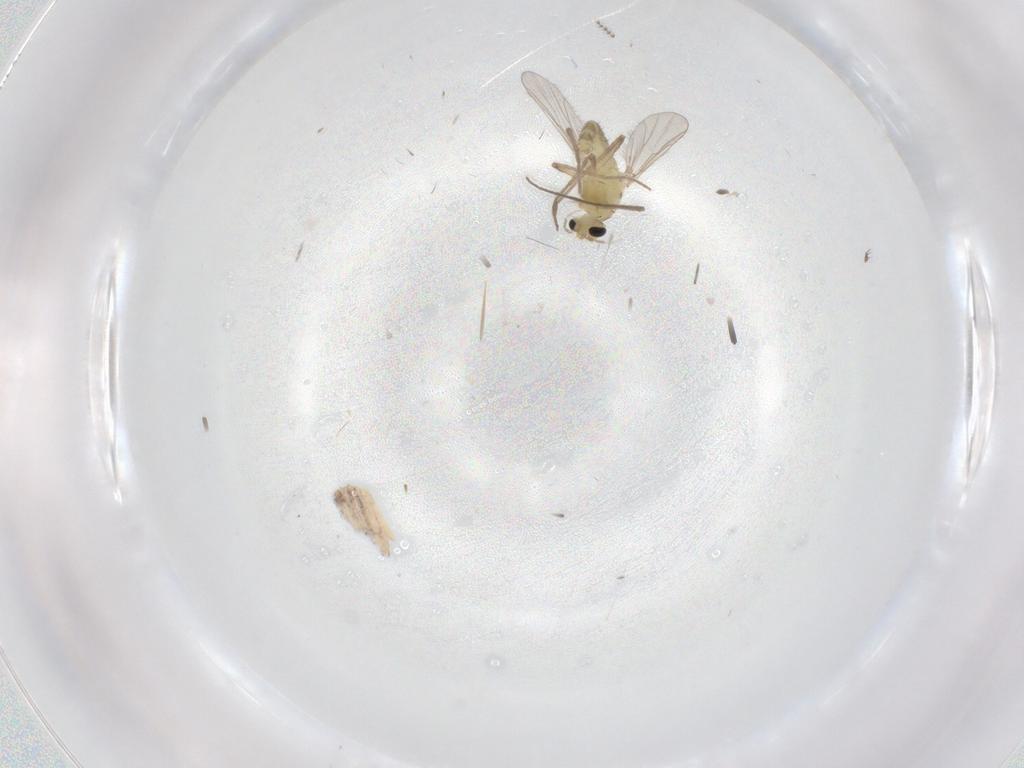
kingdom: Animalia
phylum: Arthropoda
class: Insecta
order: Diptera
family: Chironomidae
